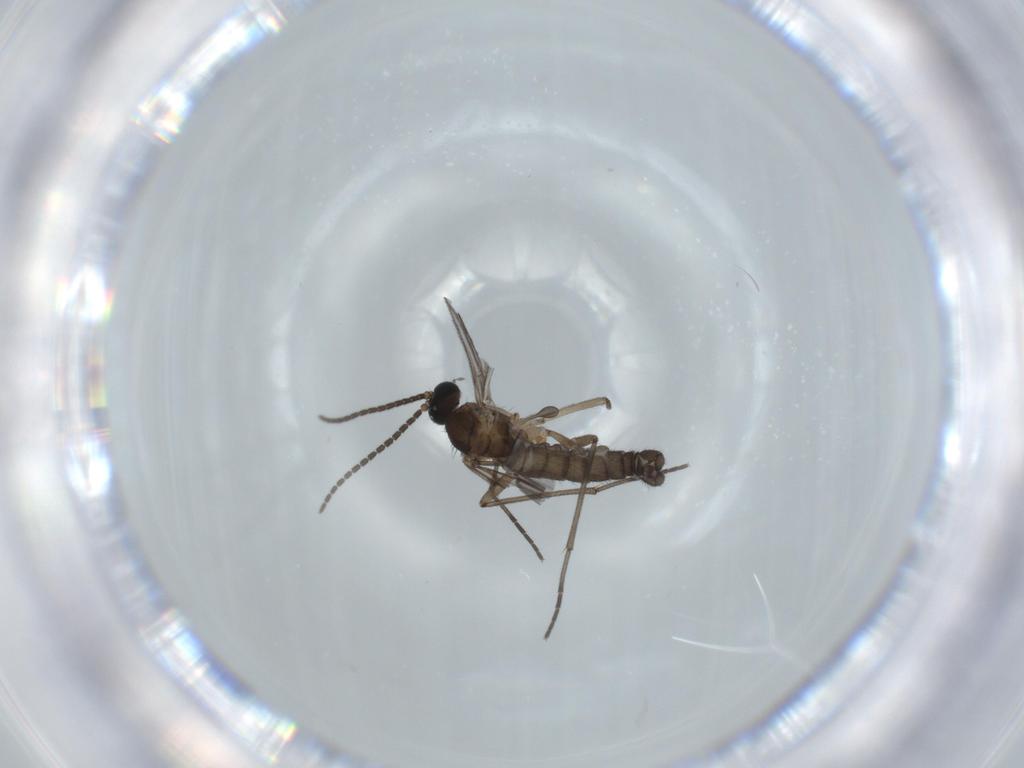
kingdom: Animalia
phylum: Arthropoda
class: Insecta
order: Diptera
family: Sciaridae
